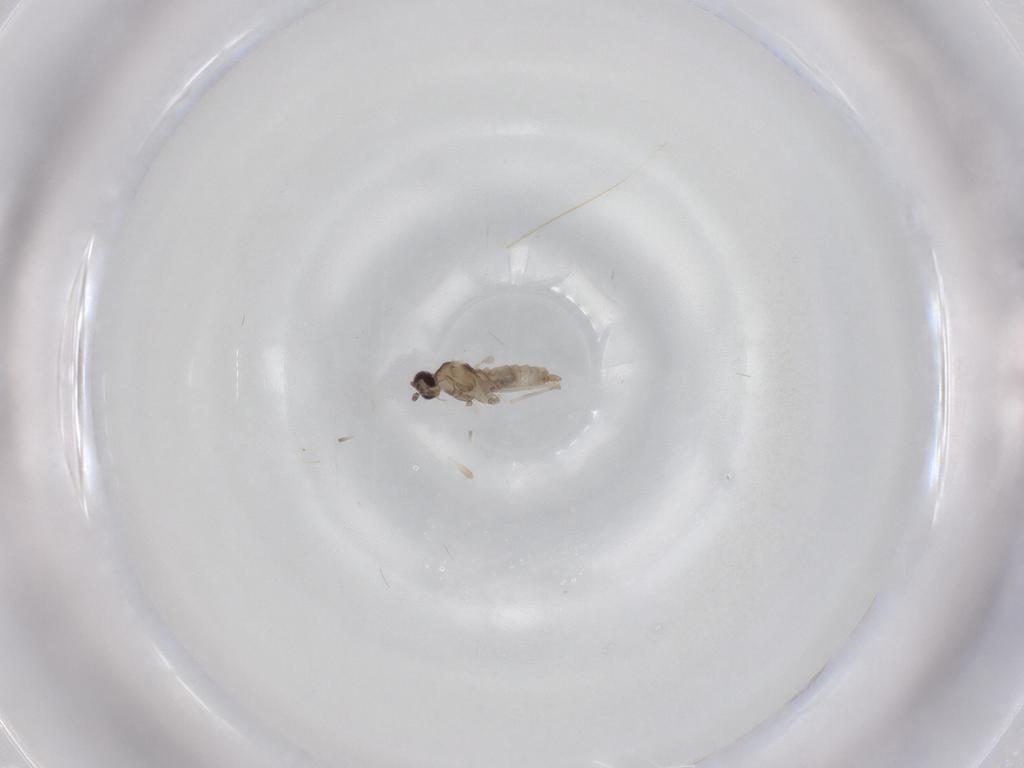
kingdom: Animalia
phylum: Arthropoda
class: Insecta
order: Diptera
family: Cecidomyiidae
